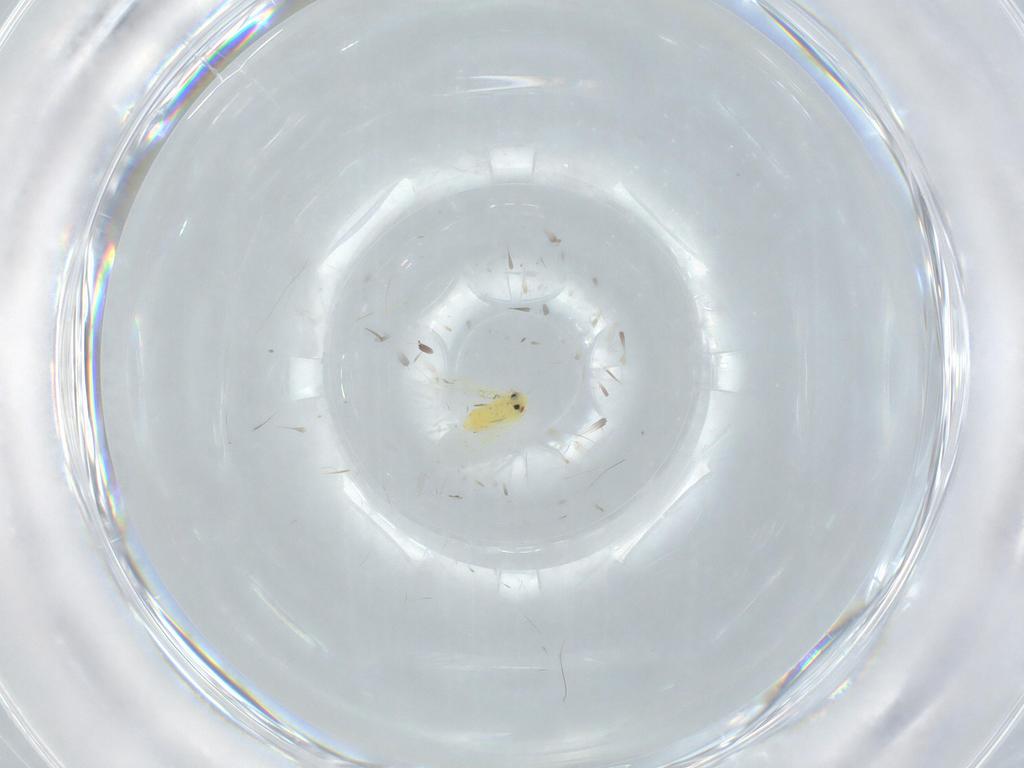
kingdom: Animalia
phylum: Arthropoda
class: Insecta
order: Hemiptera
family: Aleyrodidae
